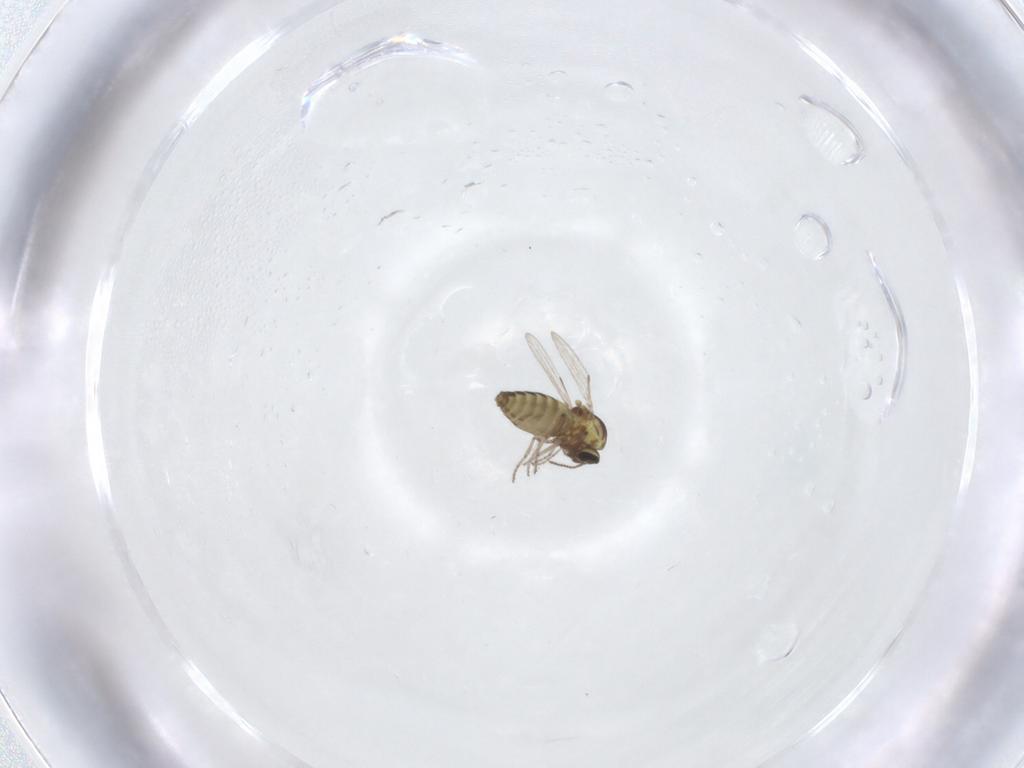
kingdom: Animalia
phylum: Arthropoda
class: Insecta
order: Diptera
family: Ceratopogonidae
